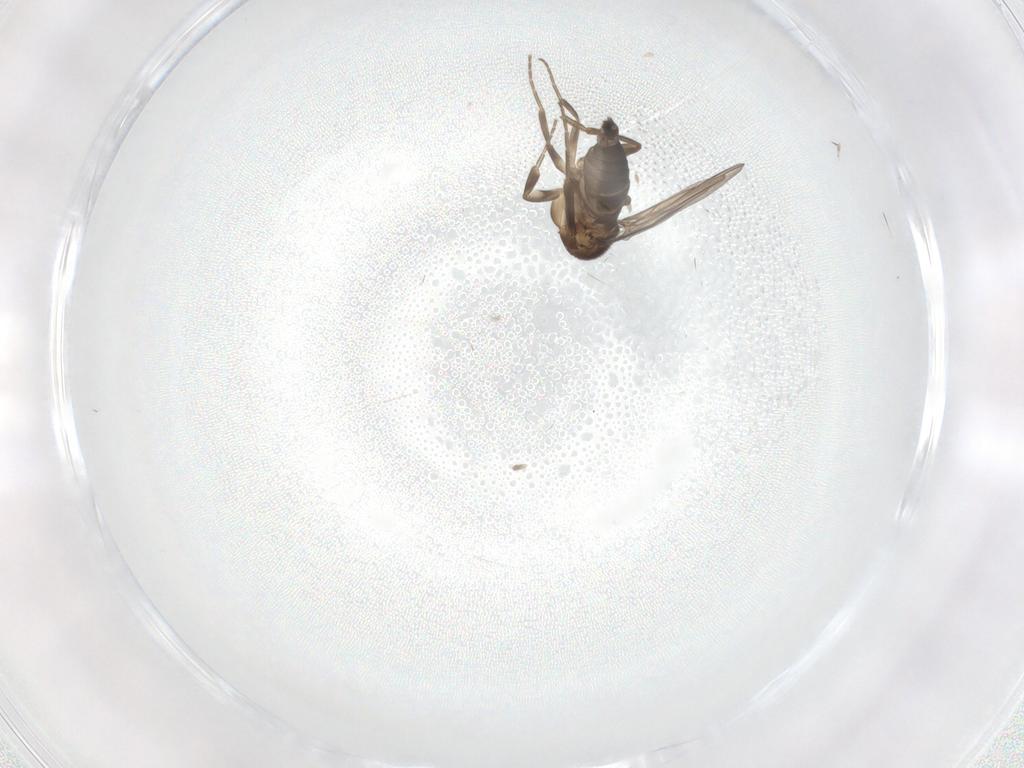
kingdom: Animalia
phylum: Arthropoda
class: Insecta
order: Diptera
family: Phoridae
